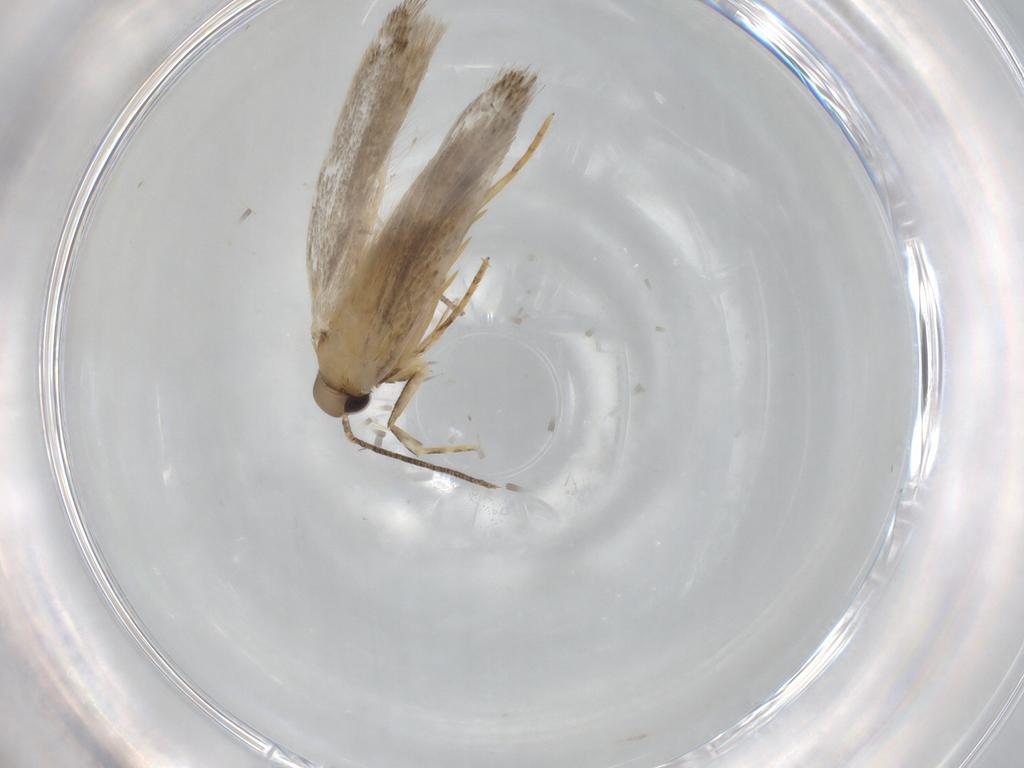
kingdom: Animalia
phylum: Arthropoda
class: Insecta
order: Lepidoptera
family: Autostichidae
